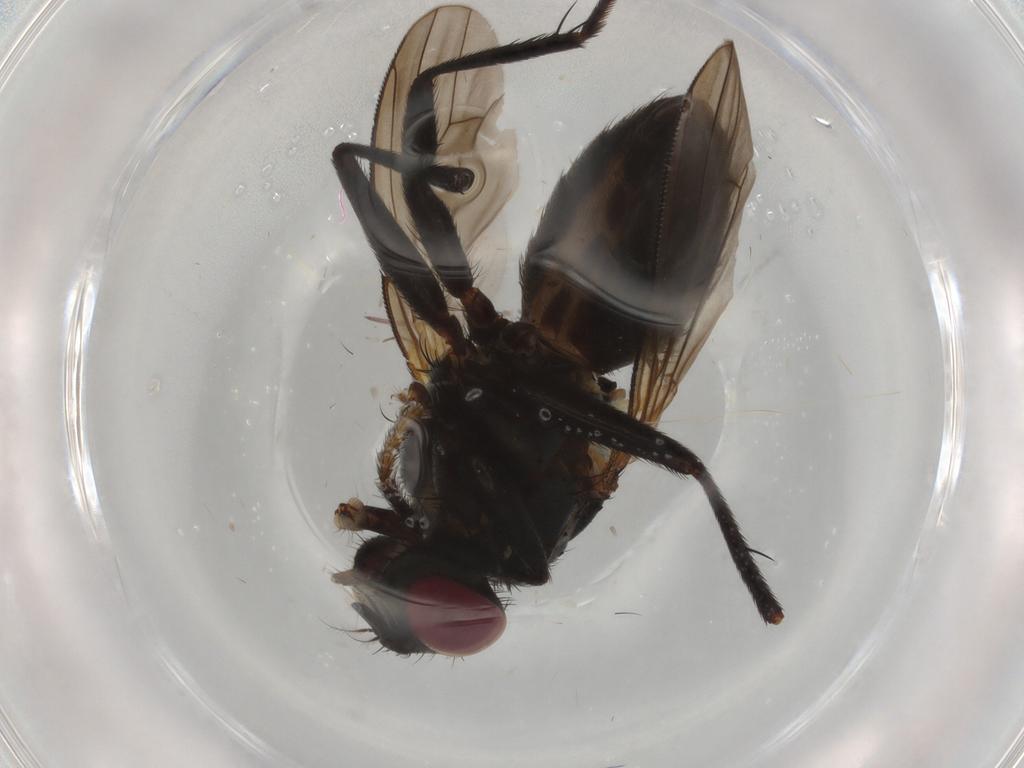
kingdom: Animalia
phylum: Arthropoda
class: Insecta
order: Diptera
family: Muscidae
